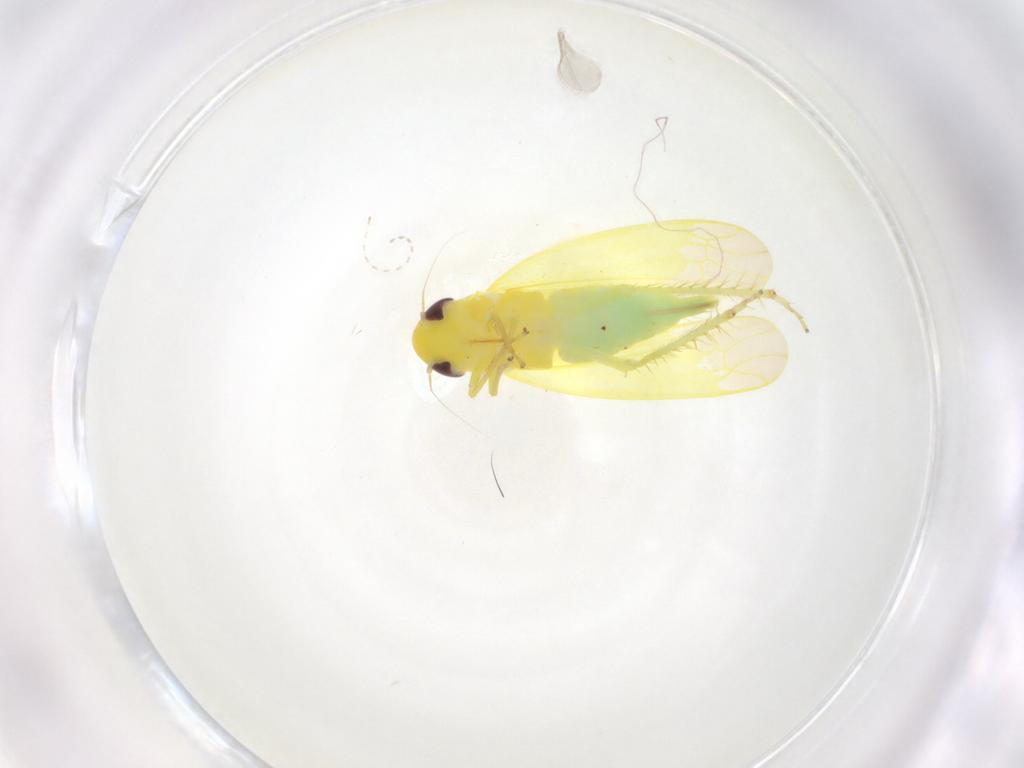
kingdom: Animalia
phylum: Arthropoda
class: Insecta
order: Hemiptera
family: Cicadellidae
